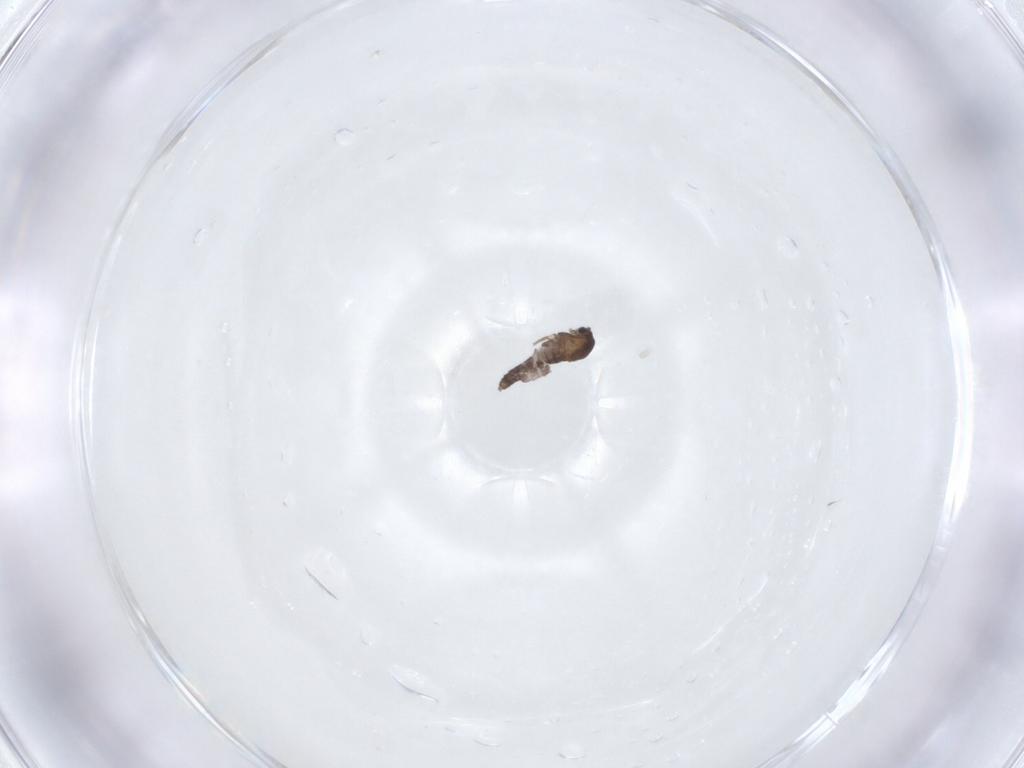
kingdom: Animalia
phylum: Arthropoda
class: Insecta
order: Diptera
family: Chironomidae
